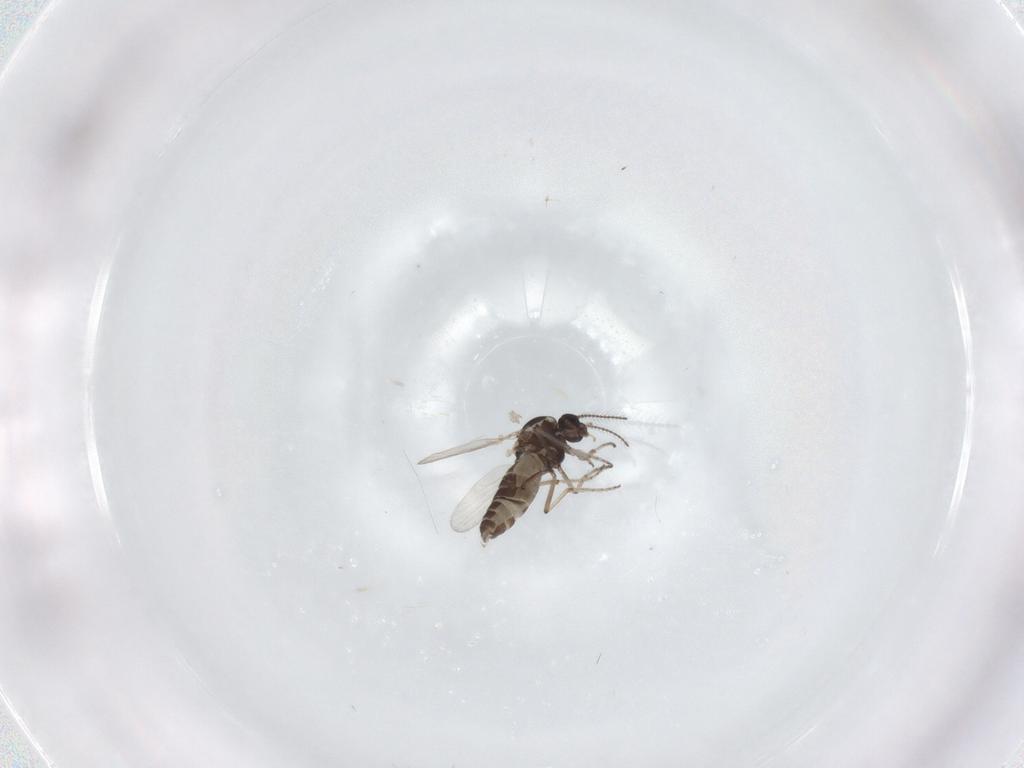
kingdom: Animalia
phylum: Arthropoda
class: Insecta
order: Diptera
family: Ceratopogonidae
